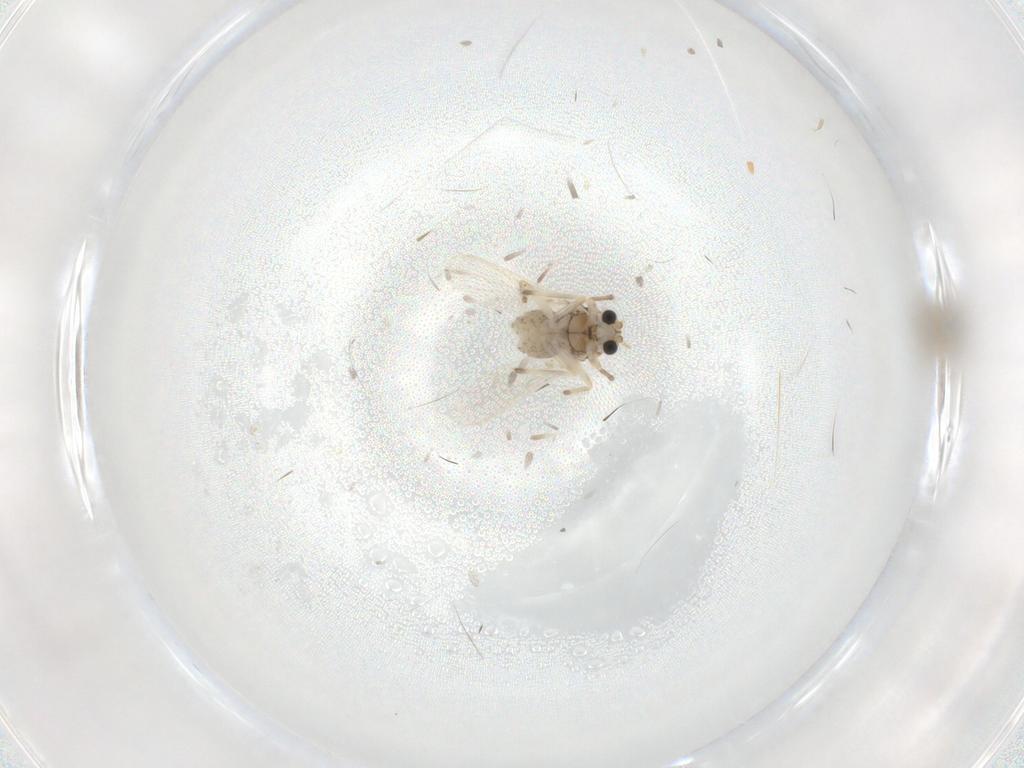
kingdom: Animalia
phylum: Arthropoda
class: Insecta
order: Diptera
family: Chironomidae
